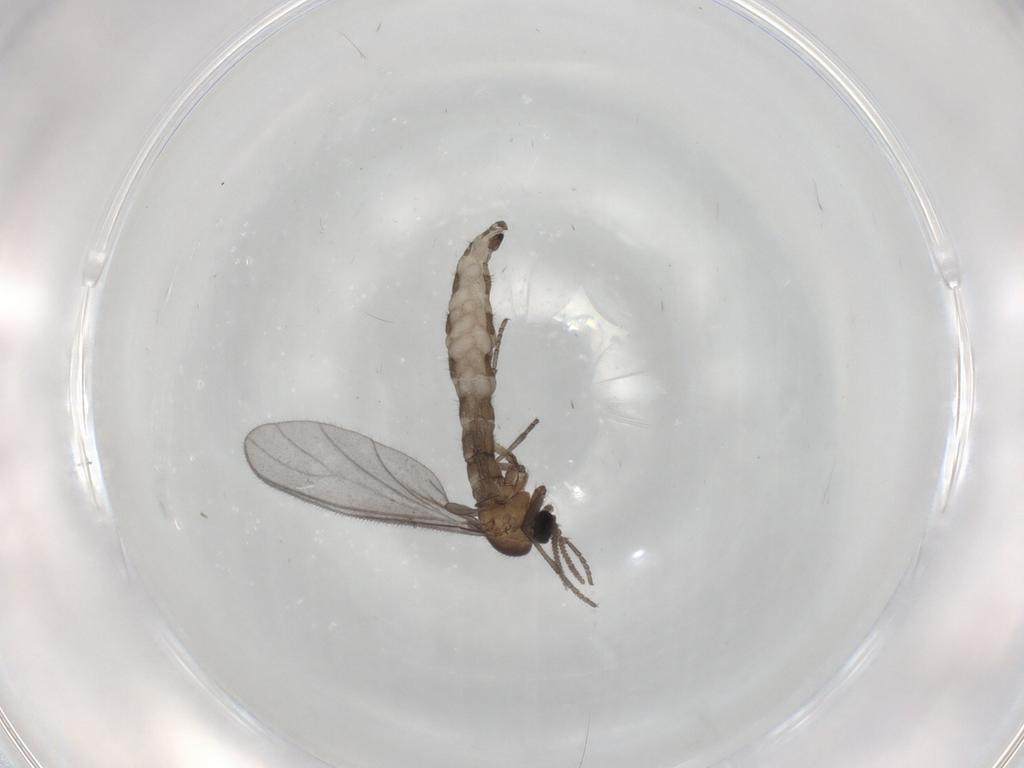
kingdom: Animalia
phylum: Arthropoda
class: Insecta
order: Diptera
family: Sciaridae
